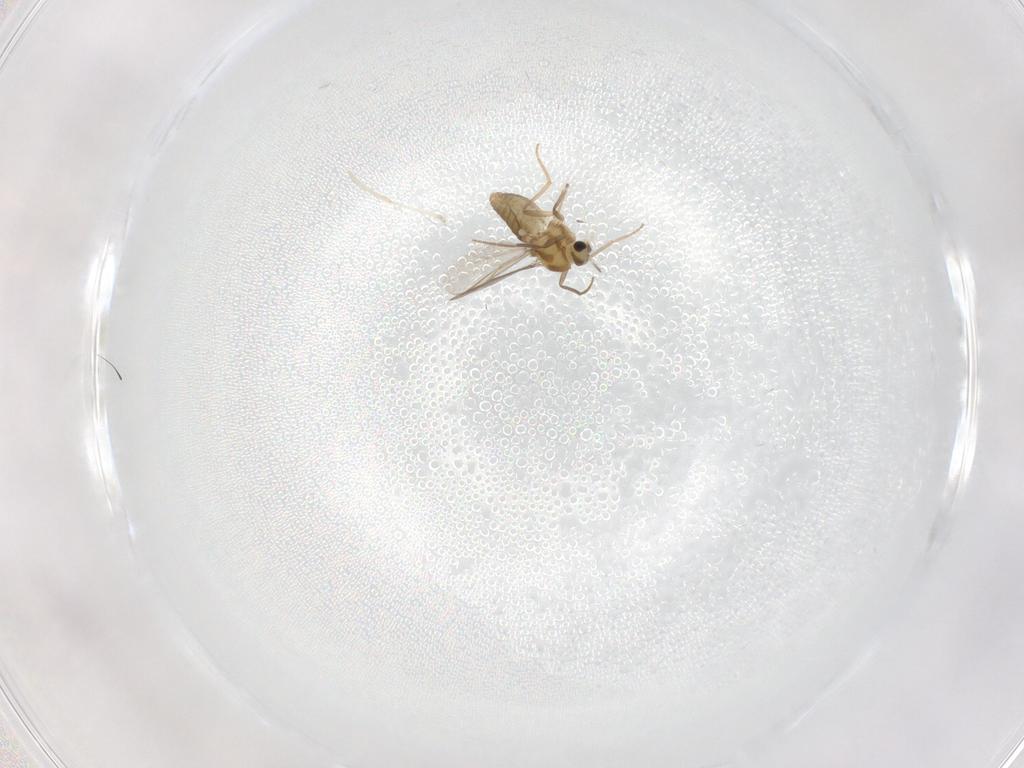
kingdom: Animalia
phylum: Arthropoda
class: Insecta
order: Diptera
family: Chironomidae
